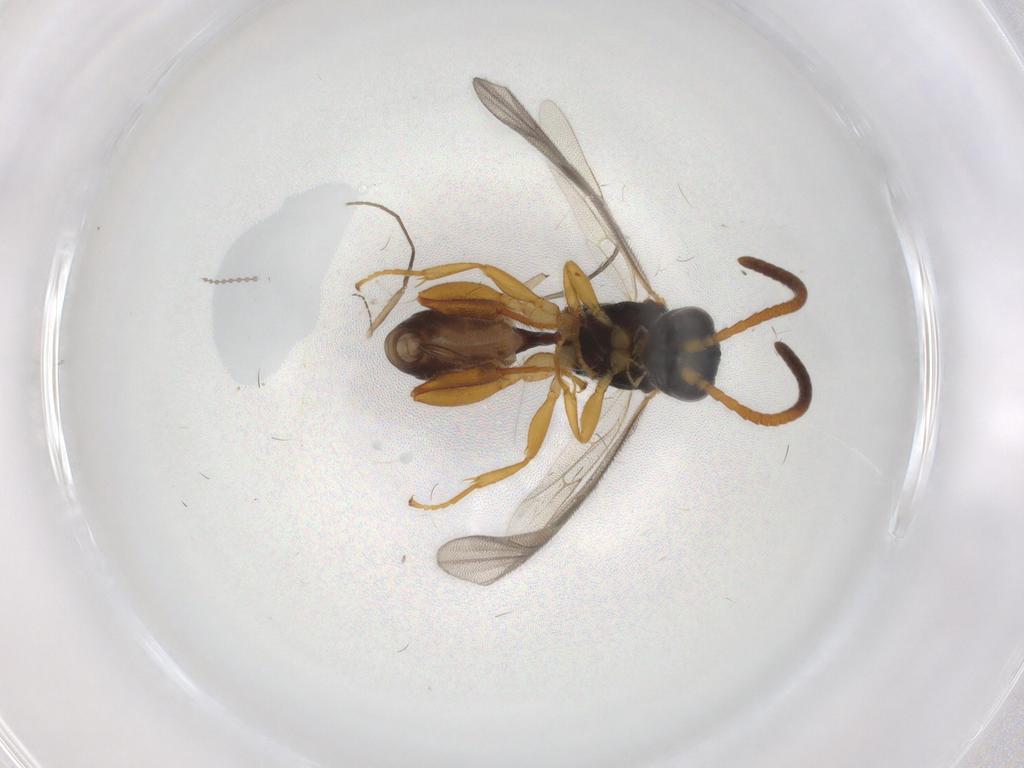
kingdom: Animalia
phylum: Arthropoda
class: Insecta
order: Hymenoptera
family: Ichneumonidae
